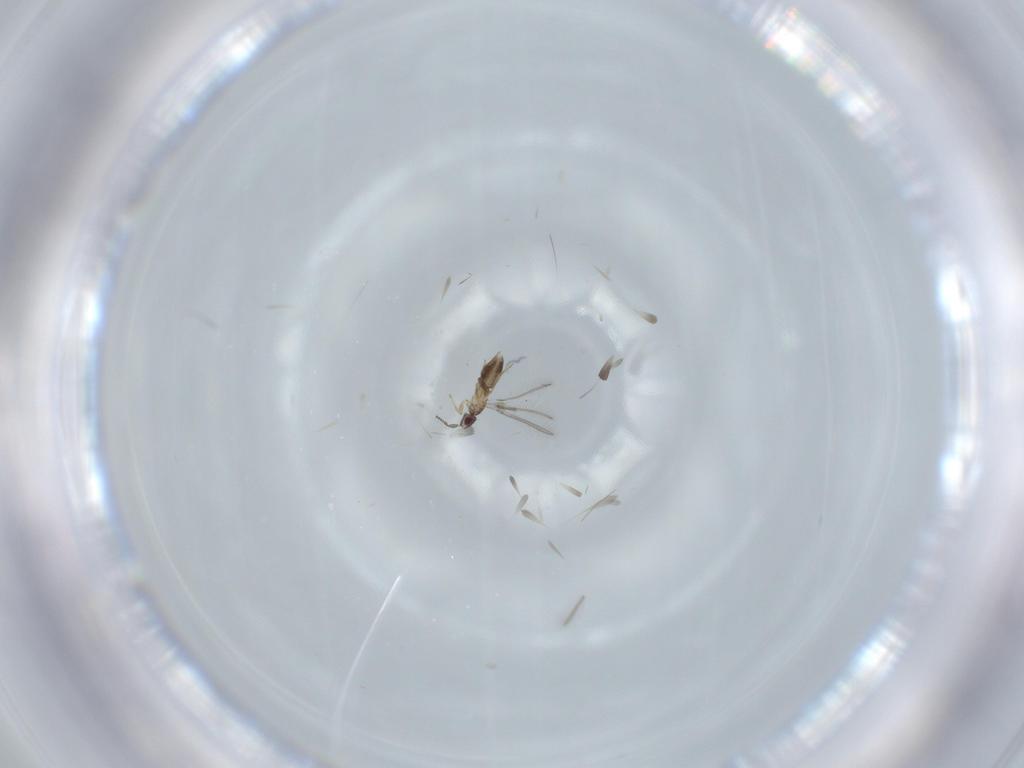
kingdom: Animalia
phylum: Arthropoda
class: Insecta
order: Hymenoptera
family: Mymaridae
